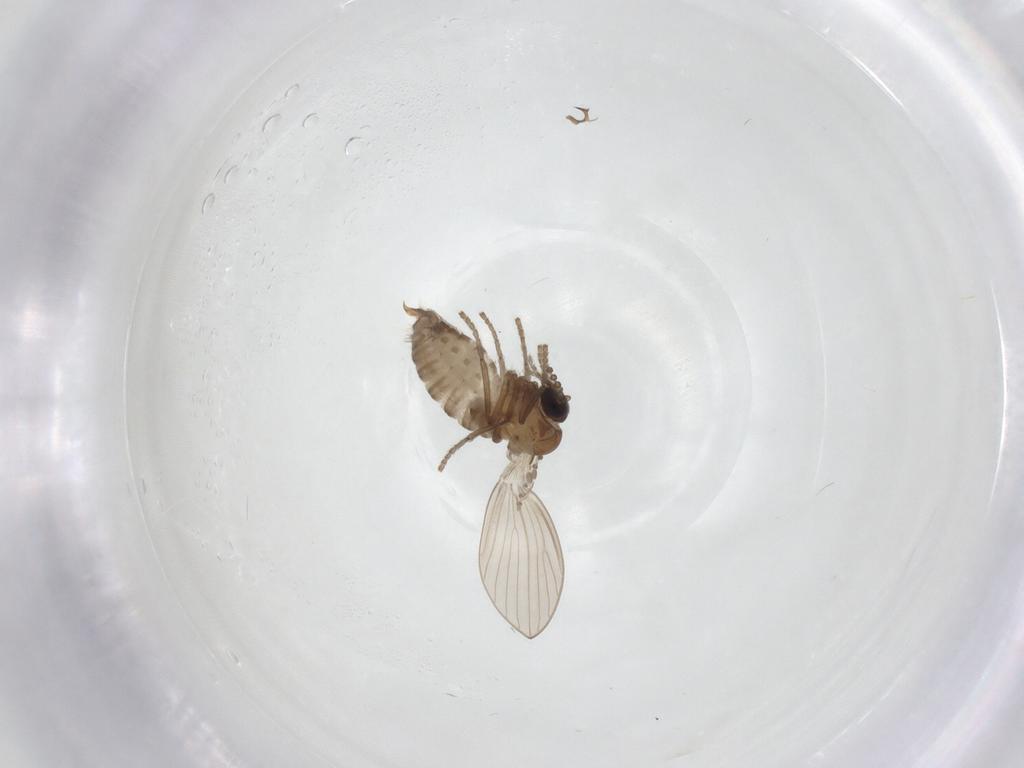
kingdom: Animalia
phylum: Arthropoda
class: Insecta
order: Diptera
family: Psychodidae
